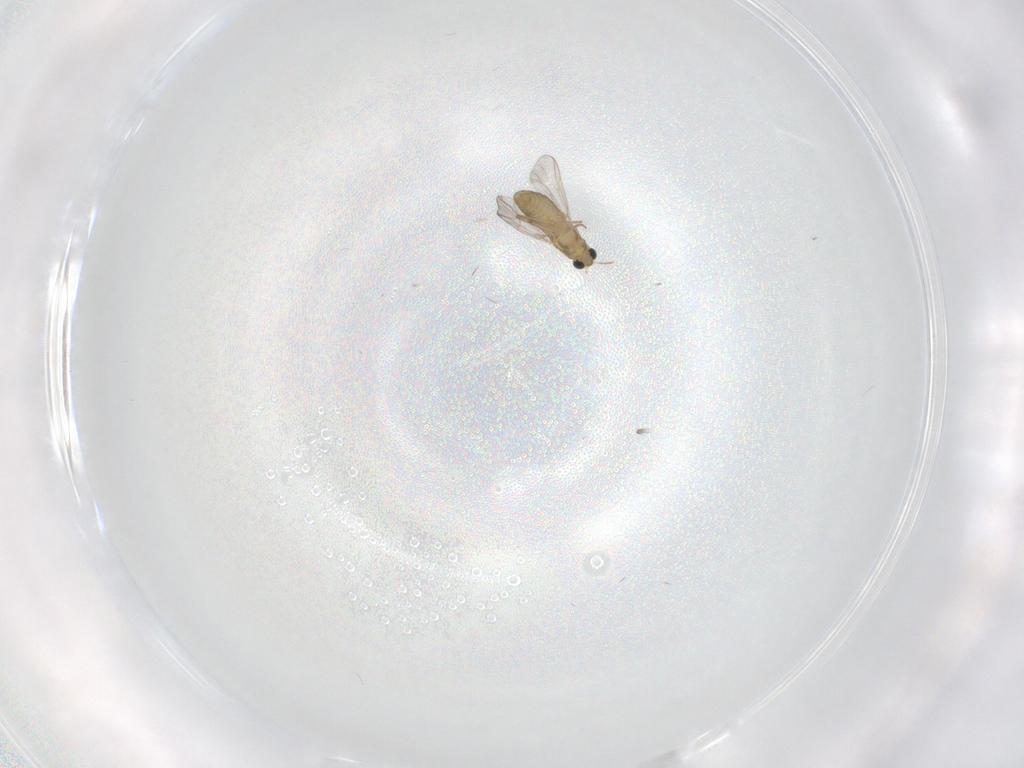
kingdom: Animalia
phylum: Arthropoda
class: Insecta
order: Diptera
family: Chironomidae
